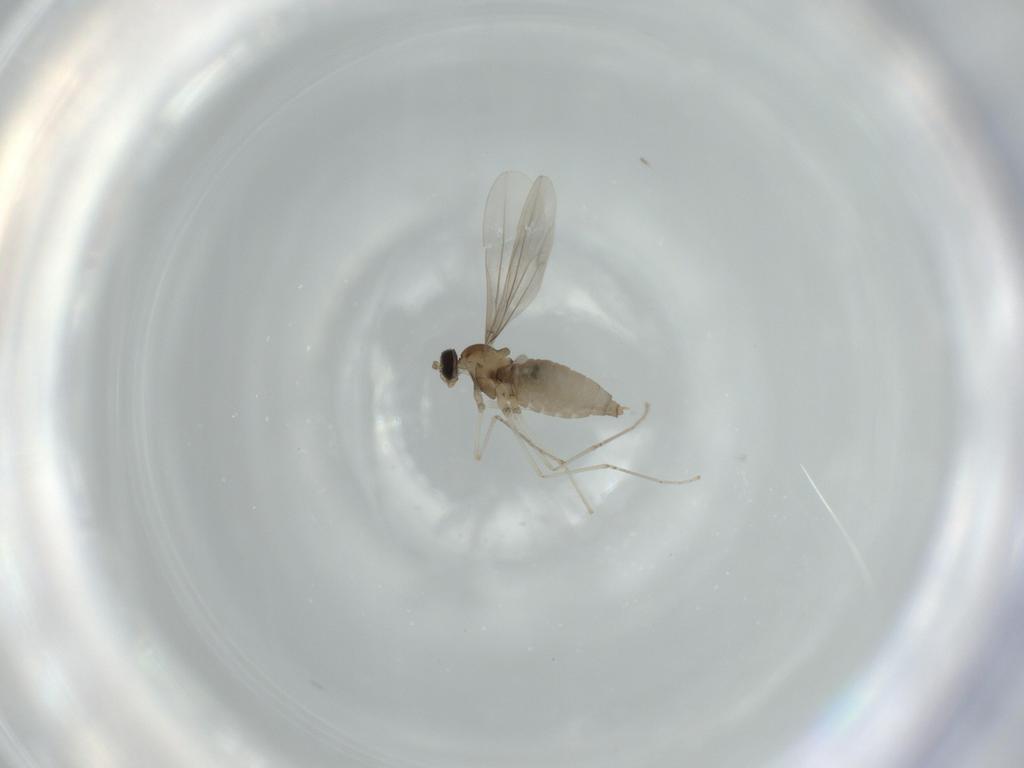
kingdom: Animalia
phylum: Arthropoda
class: Insecta
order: Diptera
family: Cecidomyiidae
